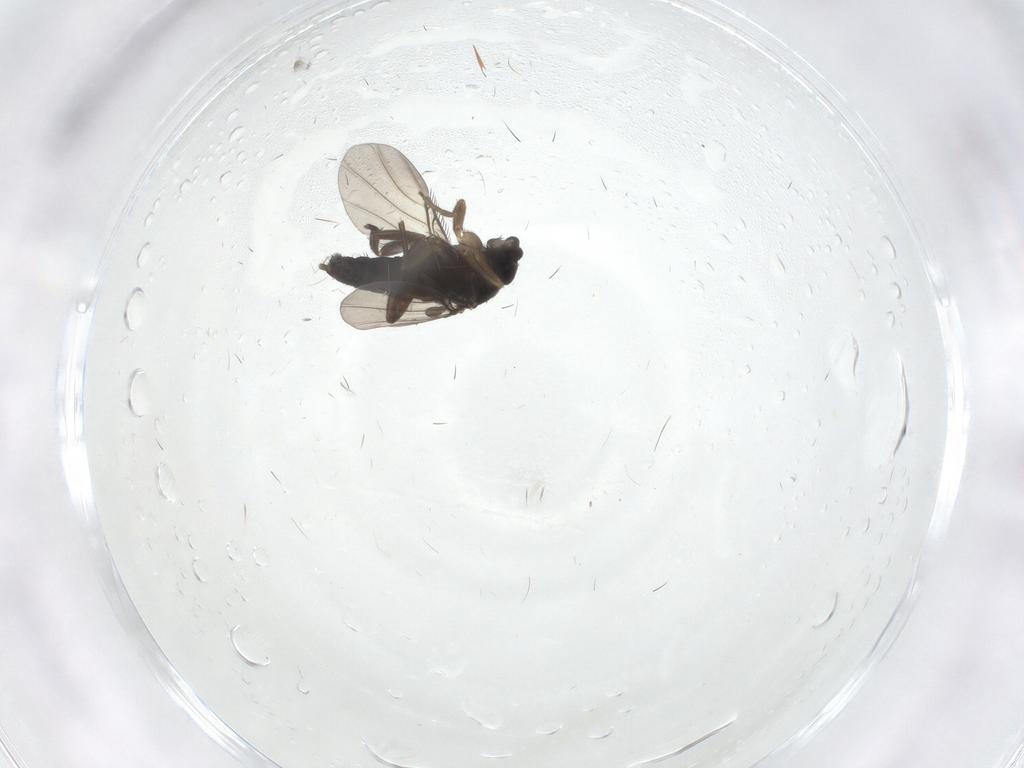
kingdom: Animalia
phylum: Arthropoda
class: Insecta
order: Diptera
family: Phoridae
